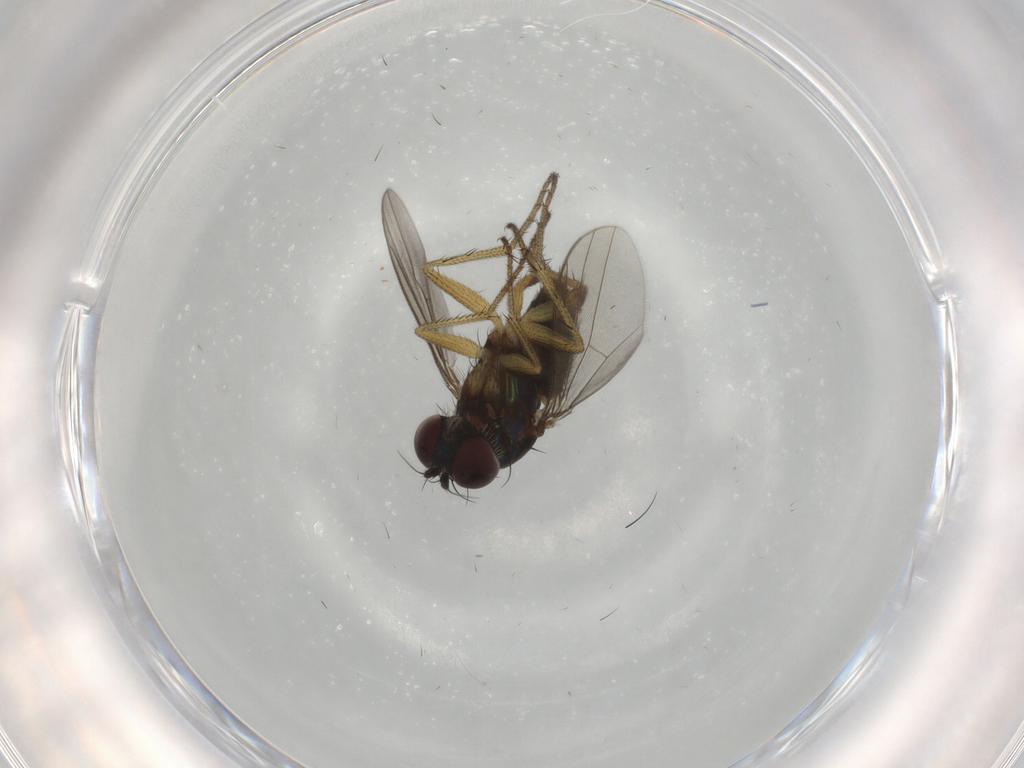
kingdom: Animalia
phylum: Arthropoda
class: Insecta
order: Diptera
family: Dolichopodidae
